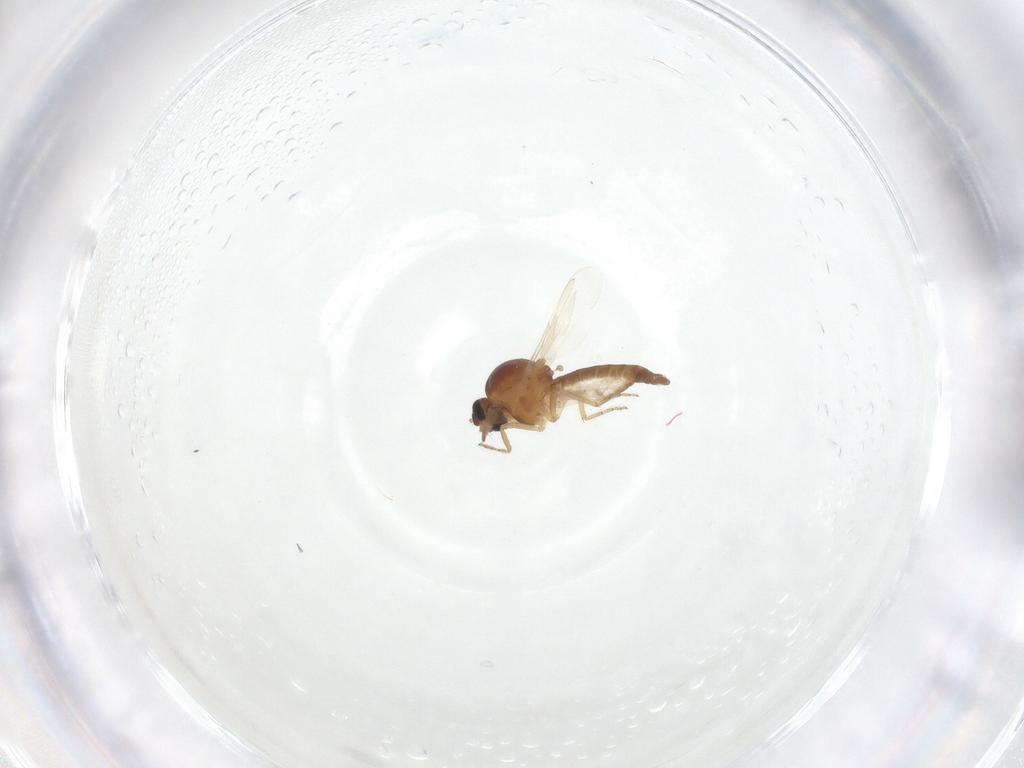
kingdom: Animalia
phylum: Arthropoda
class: Insecta
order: Diptera
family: Ceratopogonidae
